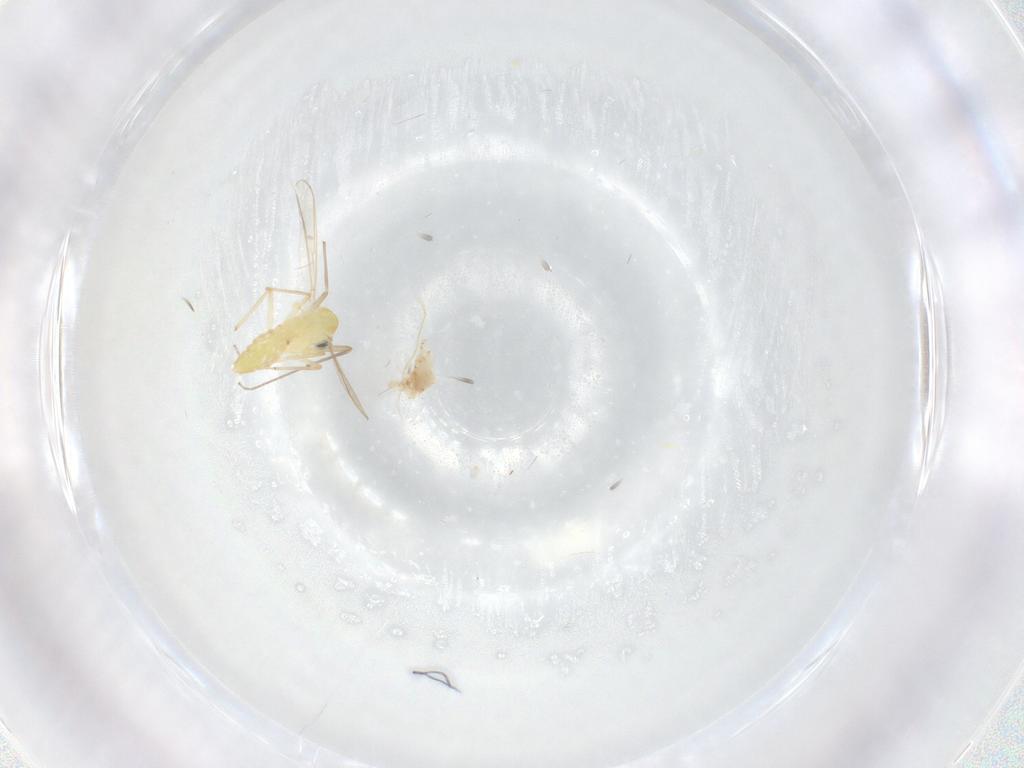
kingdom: Animalia
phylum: Arthropoda
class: Insecta
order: Diptera
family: Chironomidae
